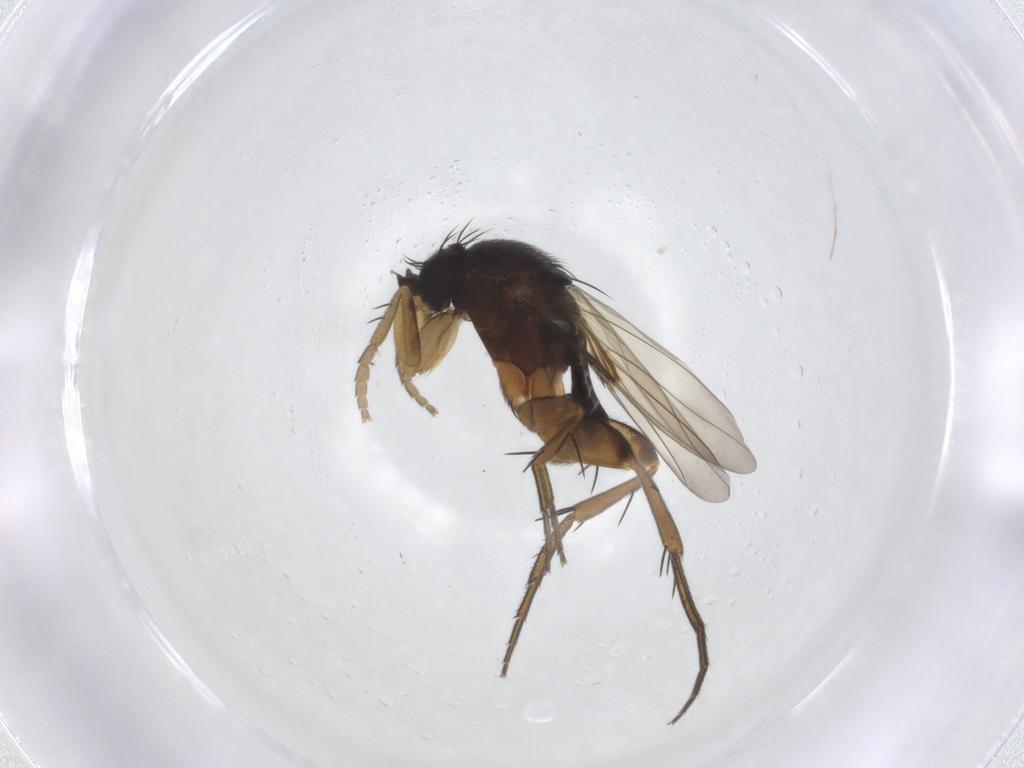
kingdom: Animalia
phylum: Arthropoda
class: Insecta
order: Diptera
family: Phoridae
